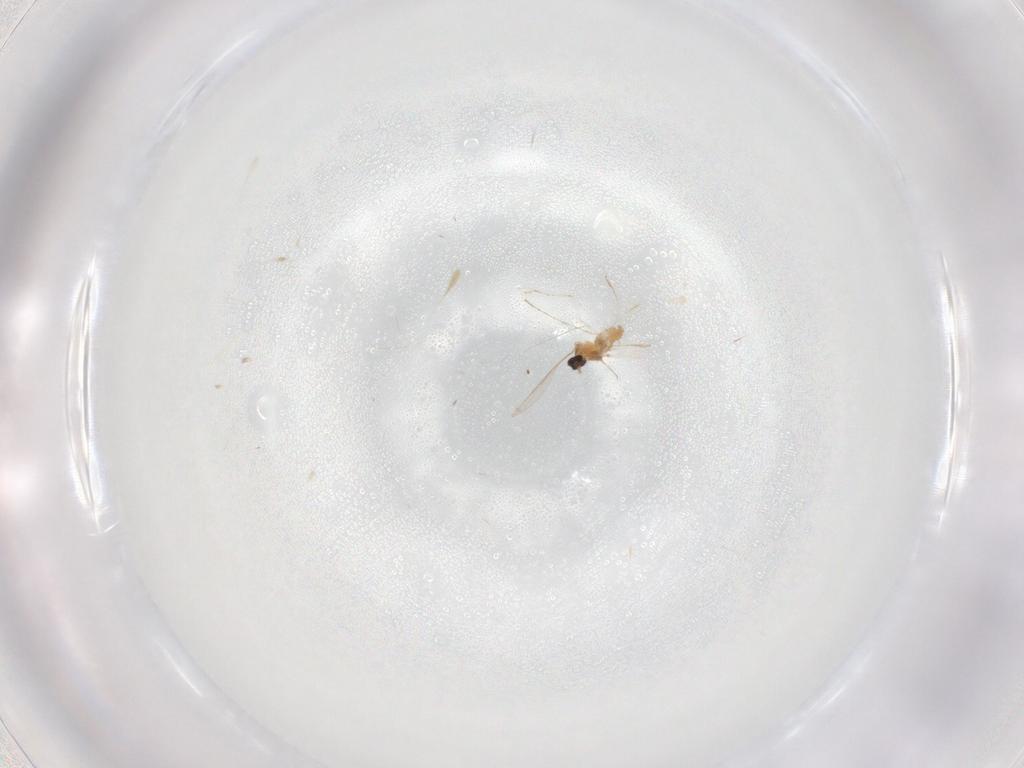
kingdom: Animalia
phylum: Arthropoda
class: Insecta
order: Diptera
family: Cecidomyiidae
